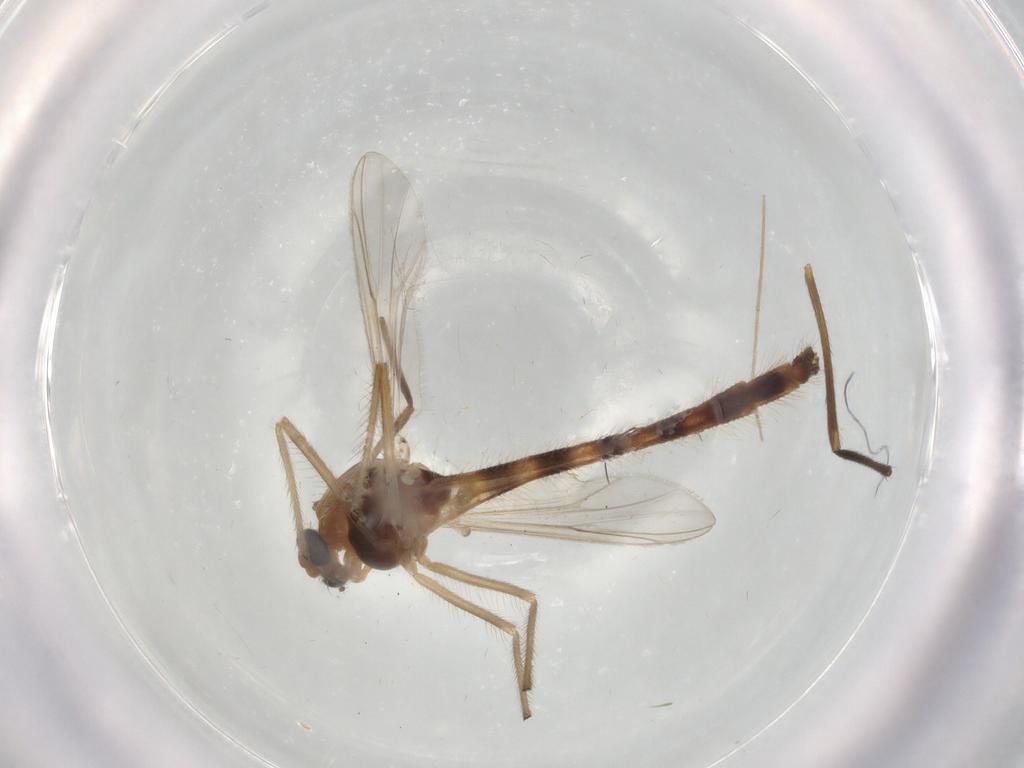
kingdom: Animalia
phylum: Arthropoda
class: Insecta
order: Diptera
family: Chironomidae
